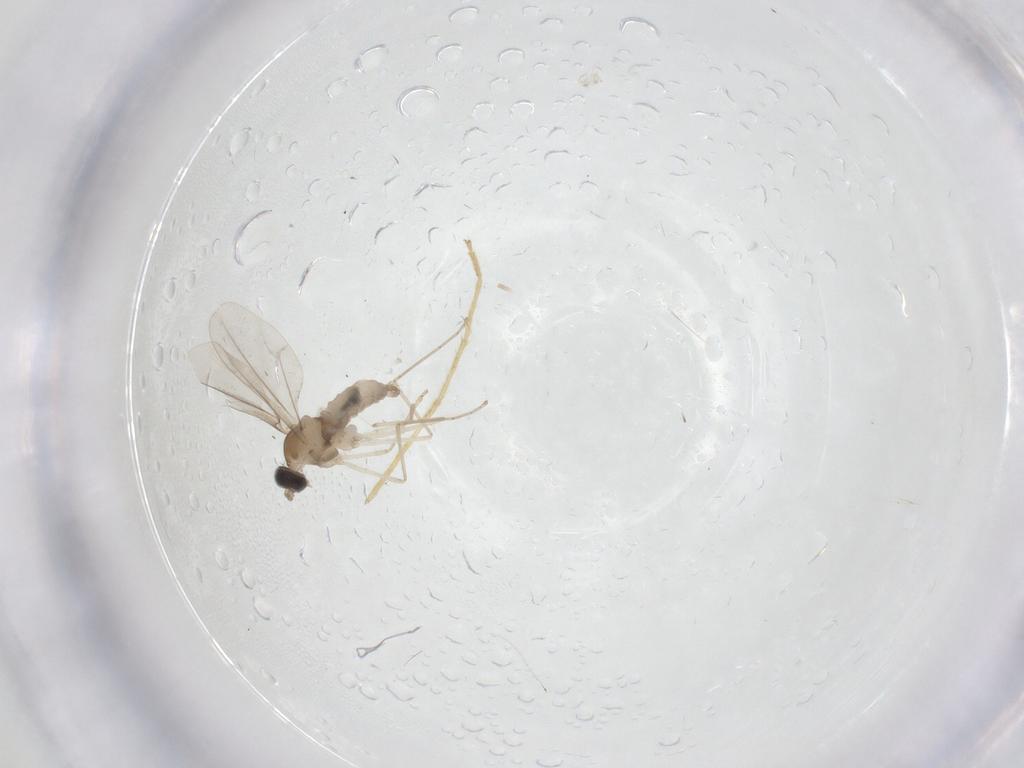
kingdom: Animalia
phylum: Arthropoda
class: Insecta
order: Diptera
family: Cecidomyiidae
